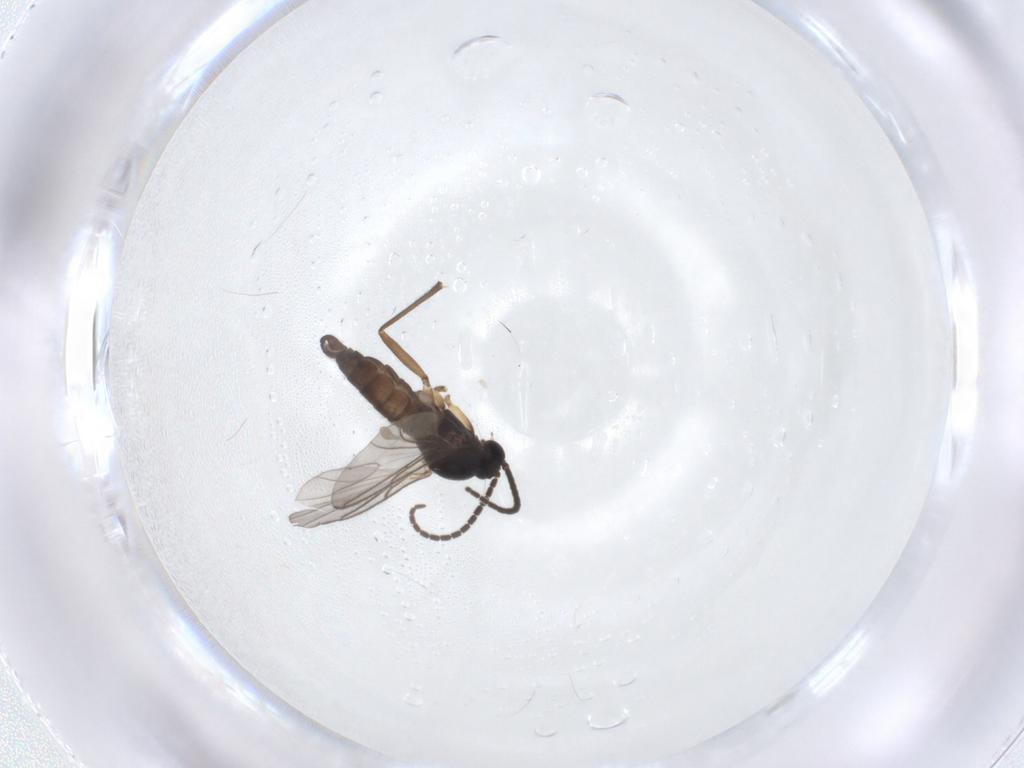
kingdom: Animalia
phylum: Arthropoda
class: Insecta
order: Diptera
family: Sciaridae
